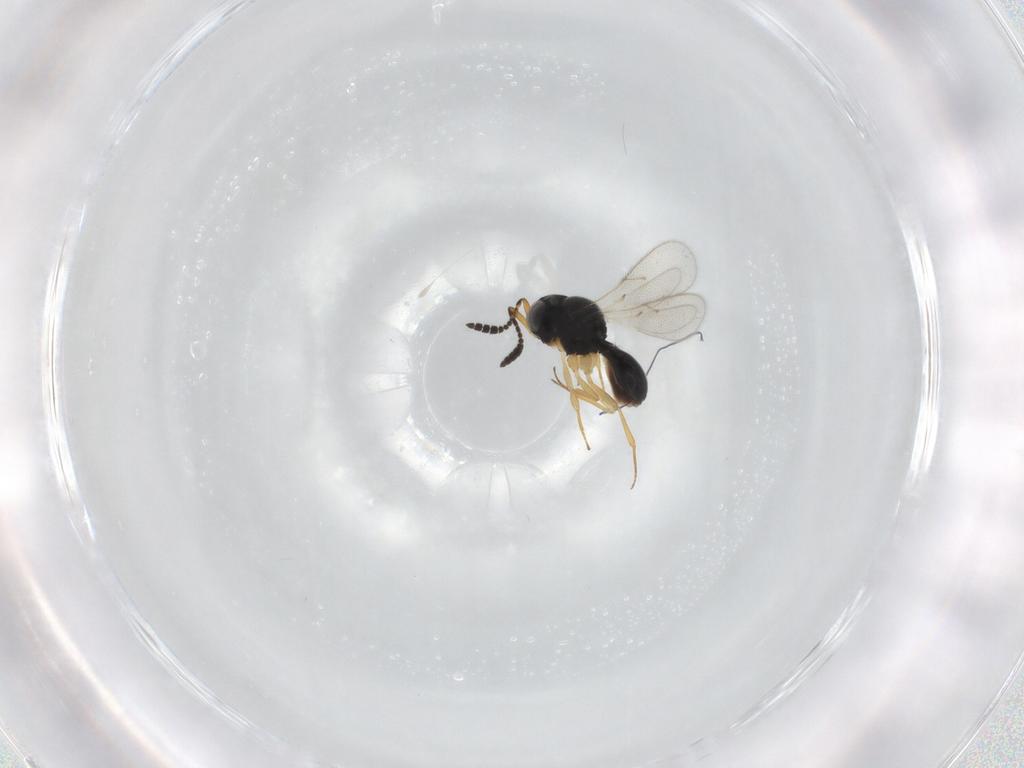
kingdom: Animalia
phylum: Arthropoda
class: Insecta
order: Hymenoptera
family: Scelionidae
